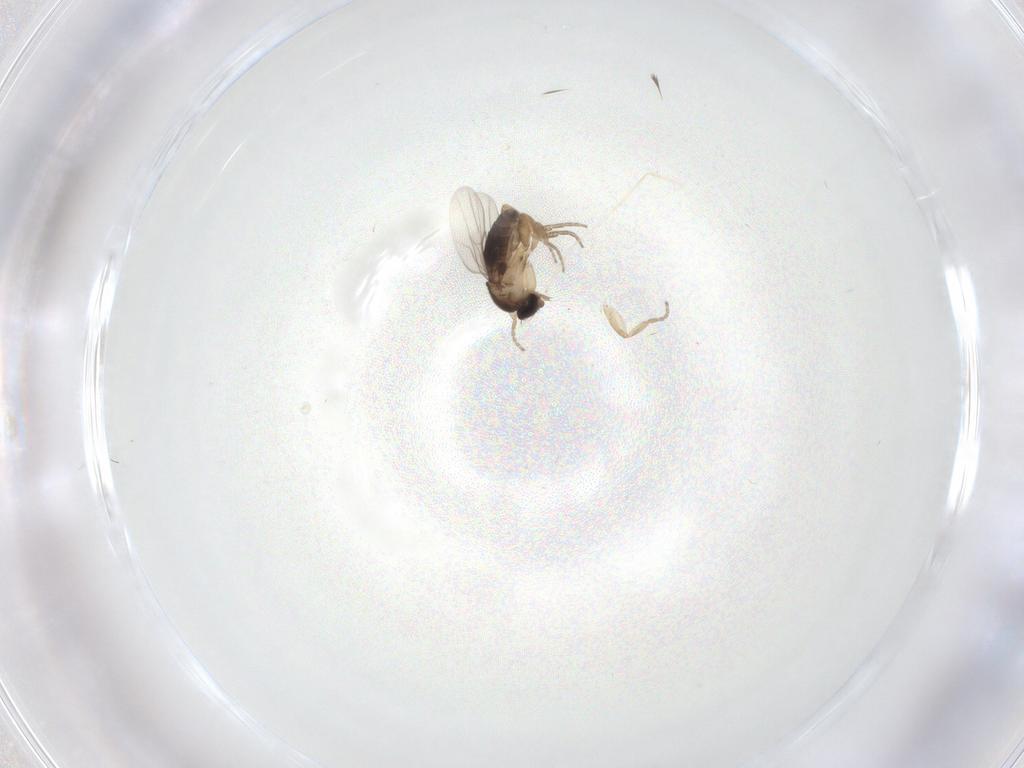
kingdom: Animalia
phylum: Arthropoda
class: Insecta
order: Diptera
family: Phoridae
